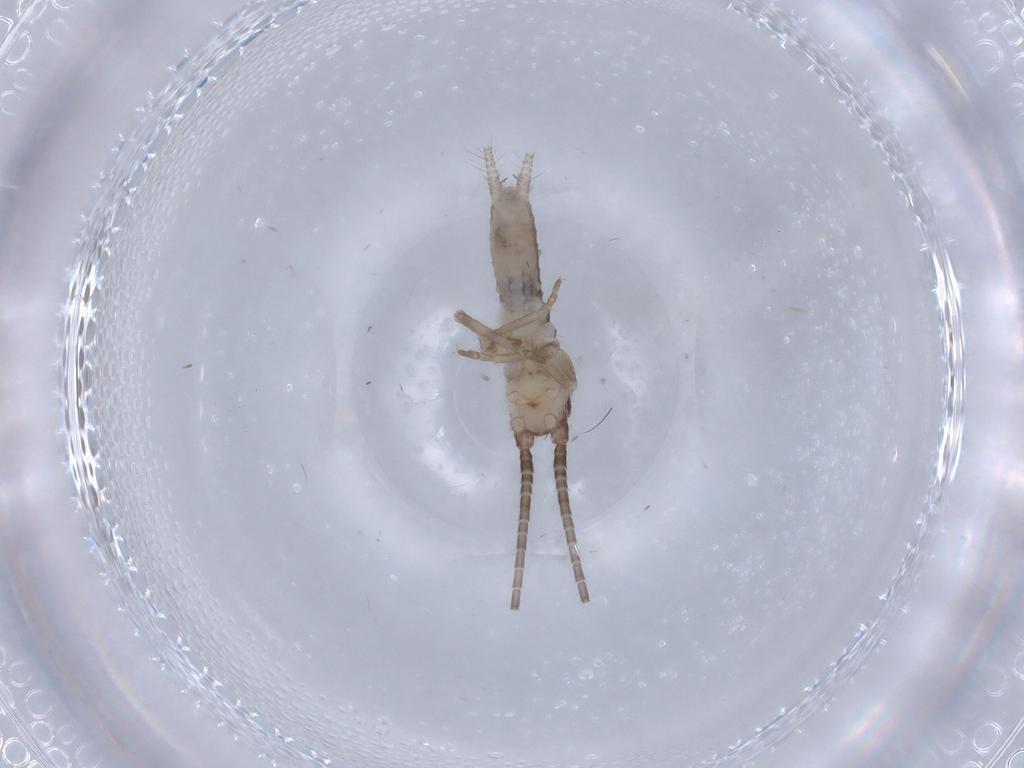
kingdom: Animalia
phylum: Arthropoda
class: Insecta
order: Orthoptera
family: Gryllidae
